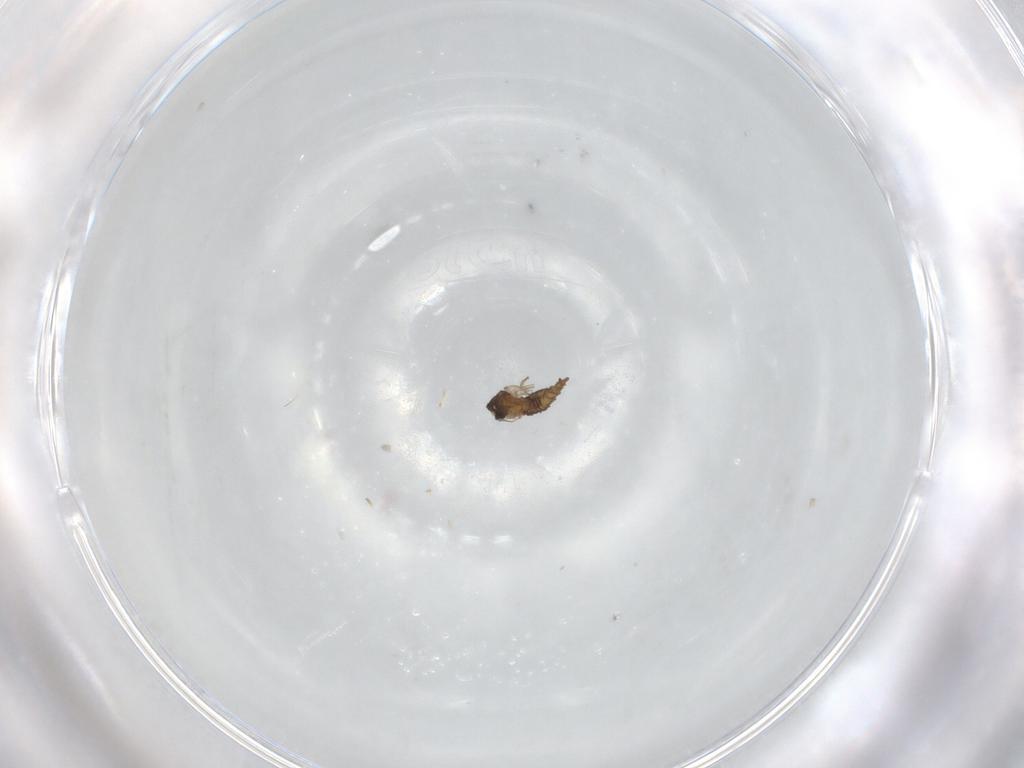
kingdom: Animalia
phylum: Arthropoda
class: Insecta
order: Diptera
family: Cecidomyiidae
